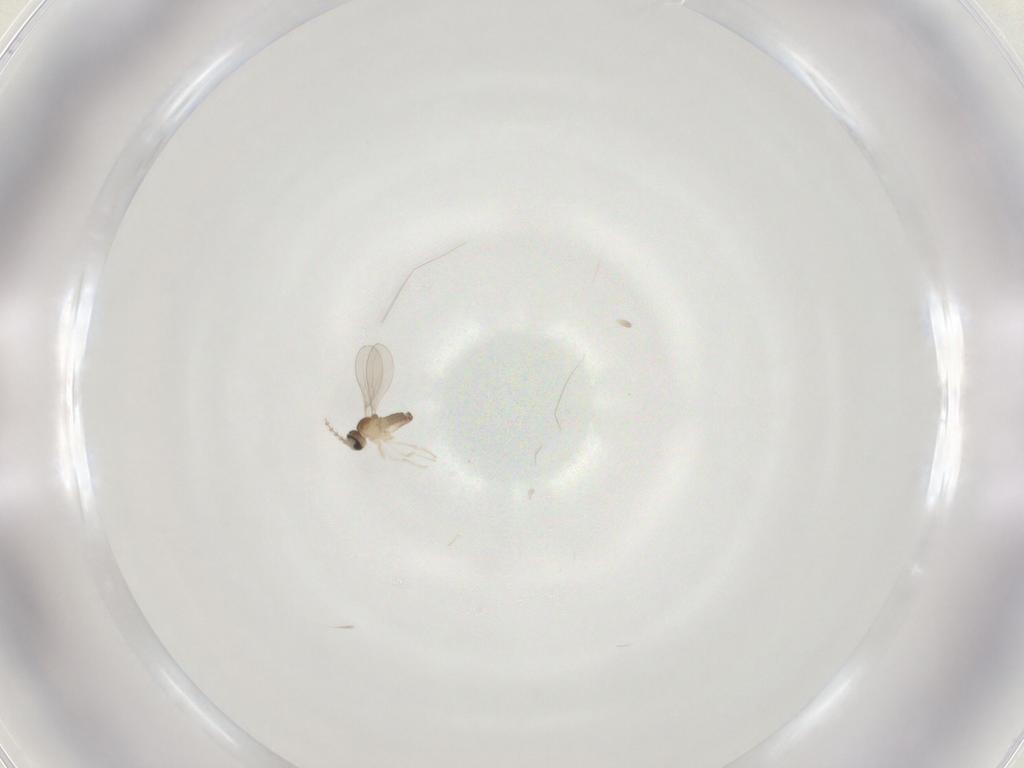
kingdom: Animalia
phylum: Arthropoda
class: Insecta
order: Diptera
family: Cecidomyiidae
